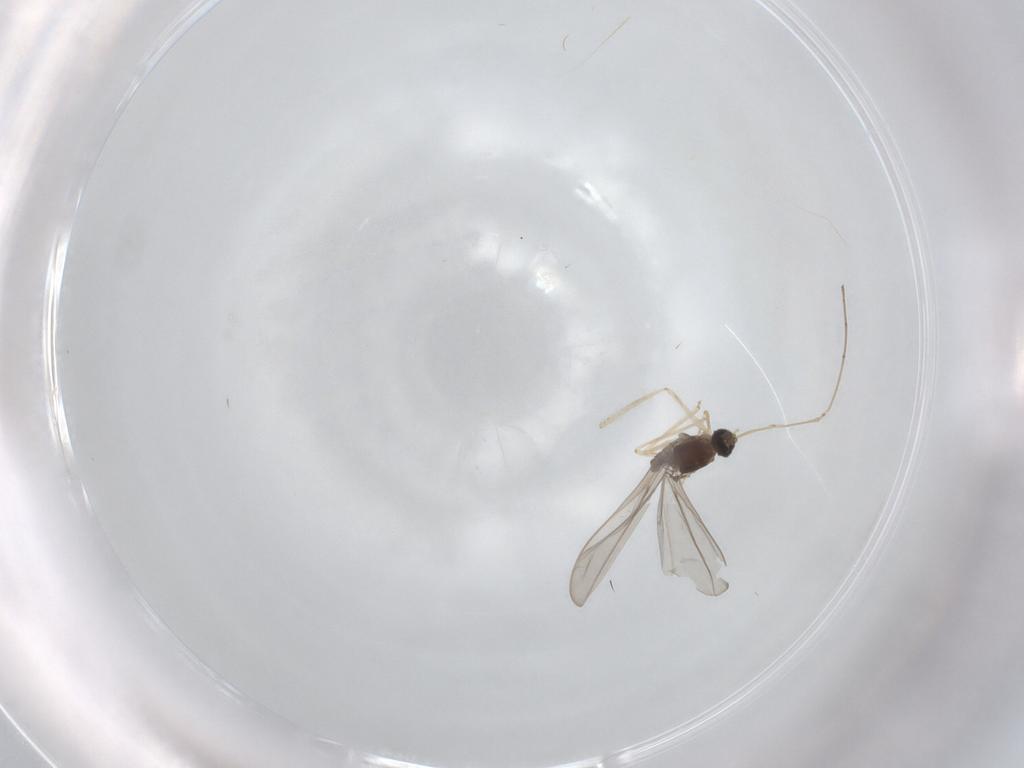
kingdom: Animalia
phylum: Arthropoda
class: Insecta
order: Diptera
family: Cecidomyiidae
